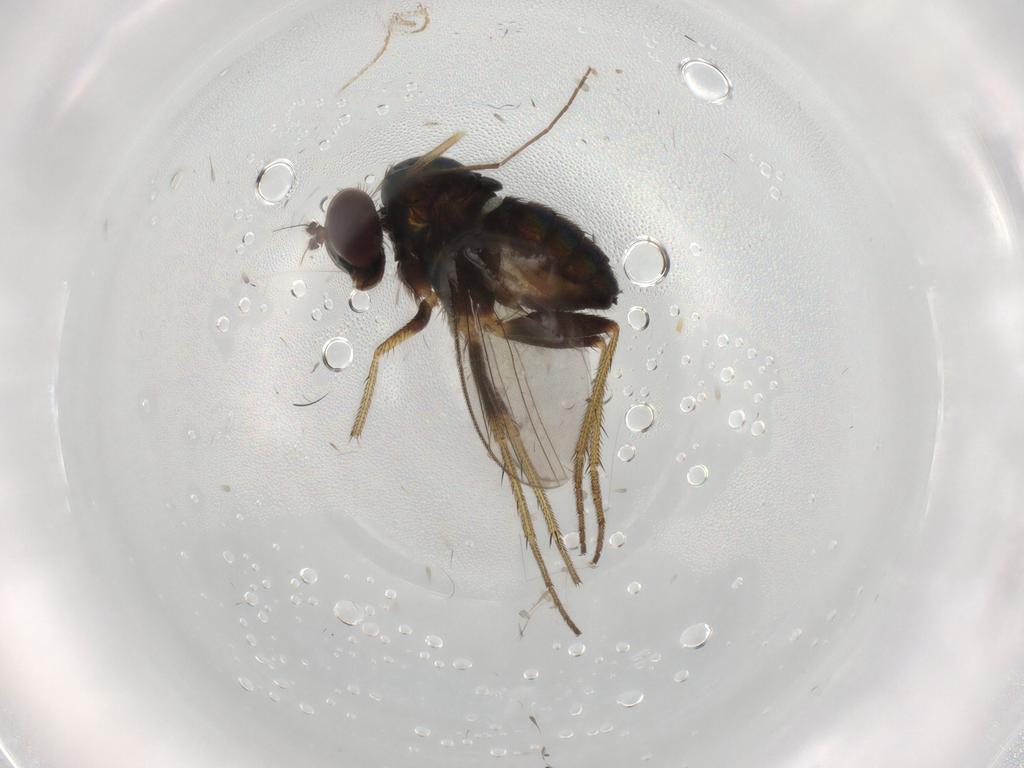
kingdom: Animalia
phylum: Arthropoda
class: Insecta
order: Diptera
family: Chironomidae
